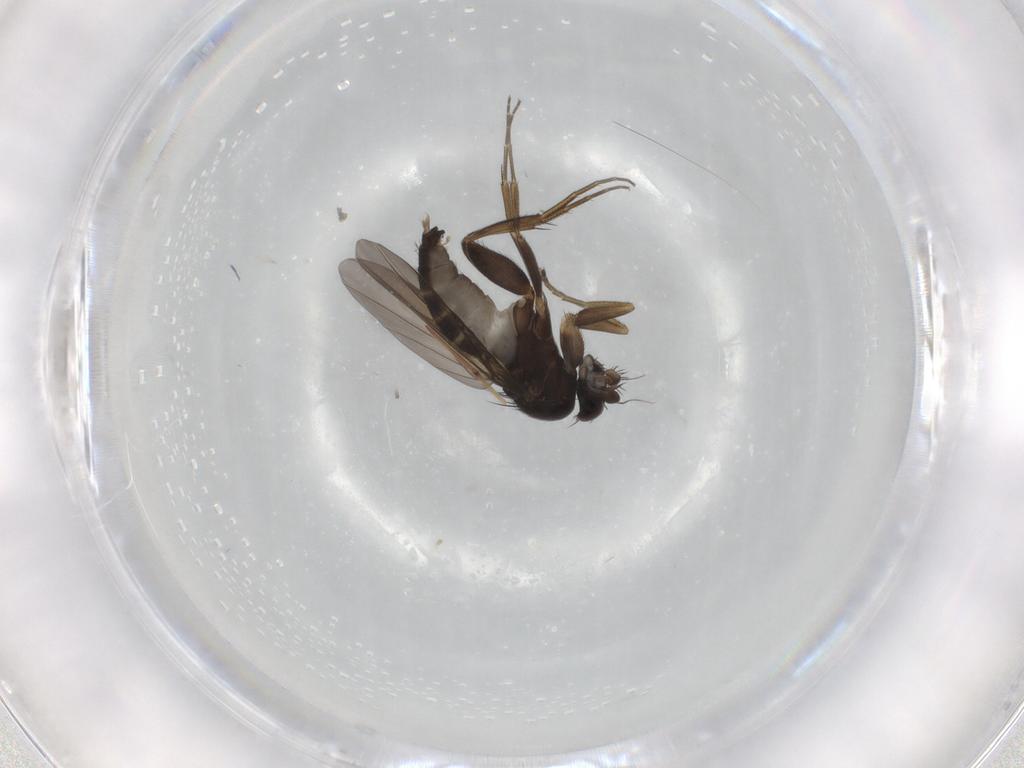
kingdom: Animalia
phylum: Arthropoda
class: Insecta
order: Diptera
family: Phoridae
